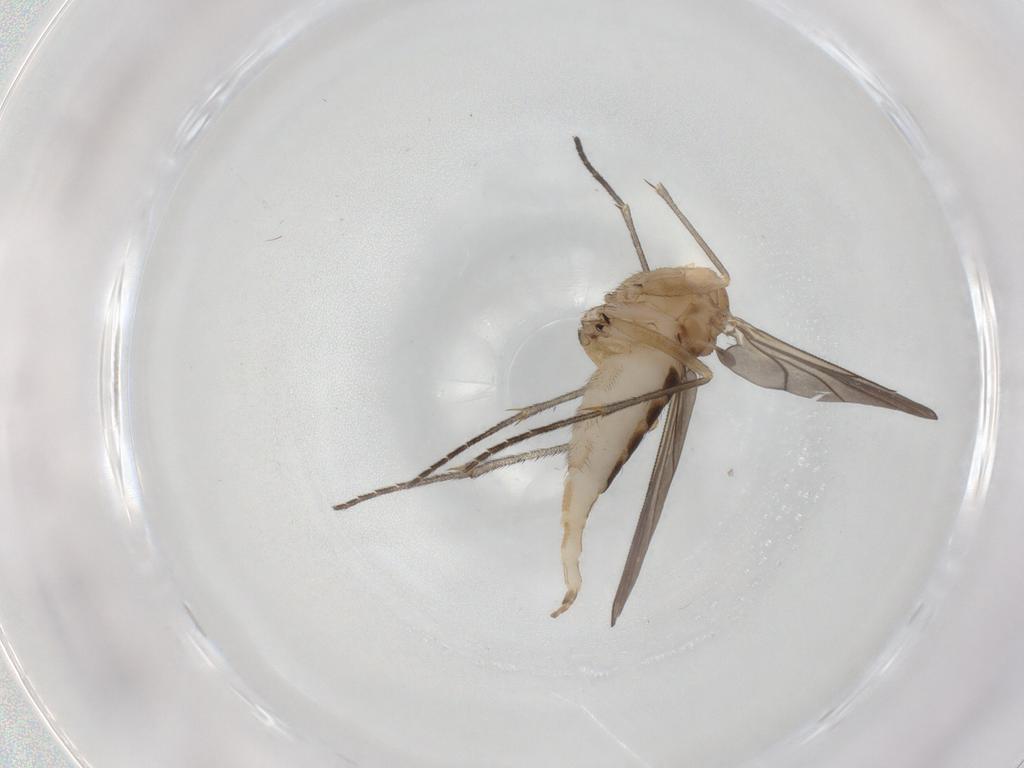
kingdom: Animalia
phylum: Arthropoda
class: Insecta
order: Diptera
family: Sciaridae
